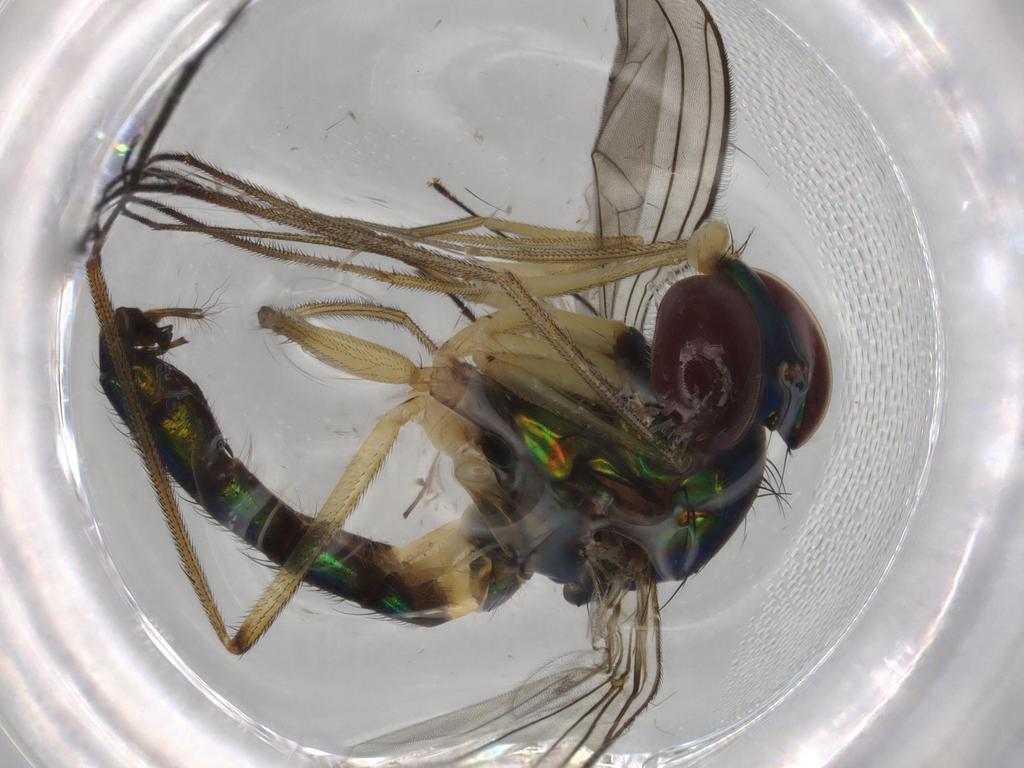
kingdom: Animalia
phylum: Arthropoda
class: Insecta
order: Diptera
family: Dolichopodidae
